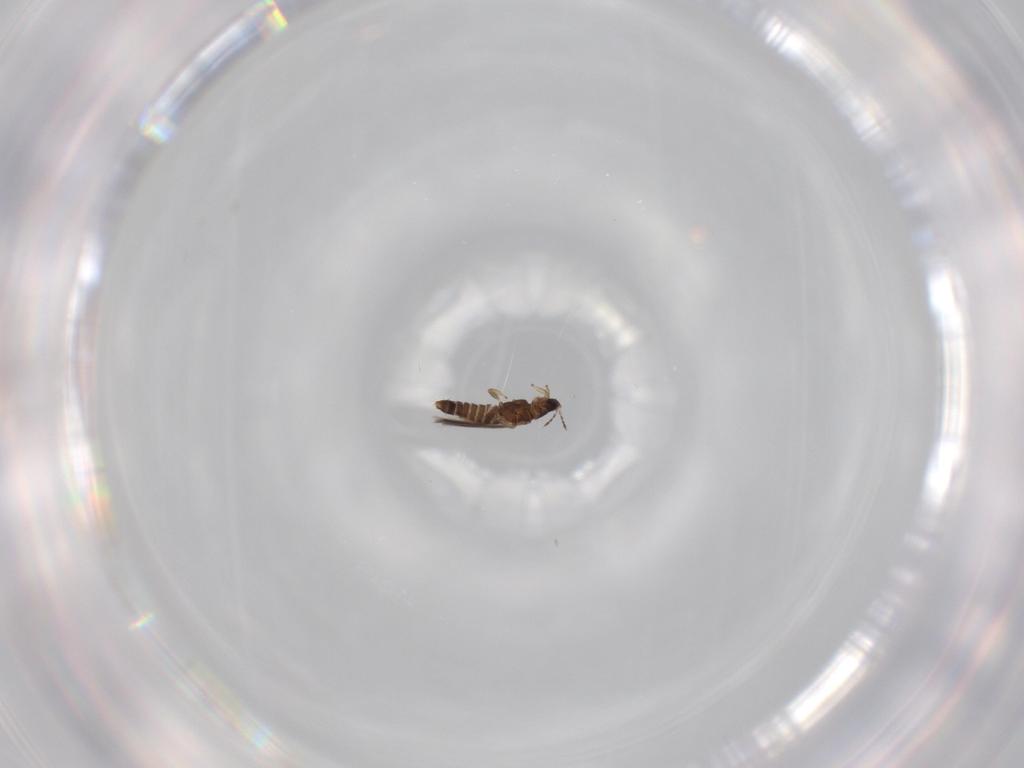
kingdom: Animalia
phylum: Arthropoda
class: Insecta
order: Thysanoptera
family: Thripidae
